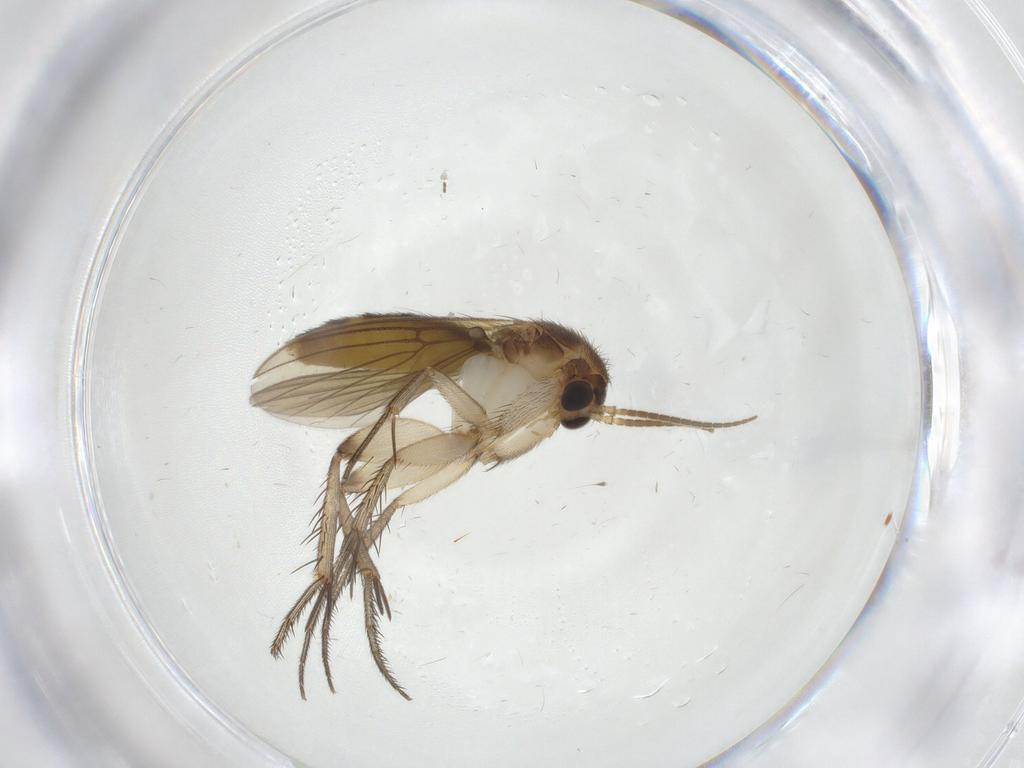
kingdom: Animalia
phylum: Arthropoda
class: Insecta
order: Diptera
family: Mycetophilidae
